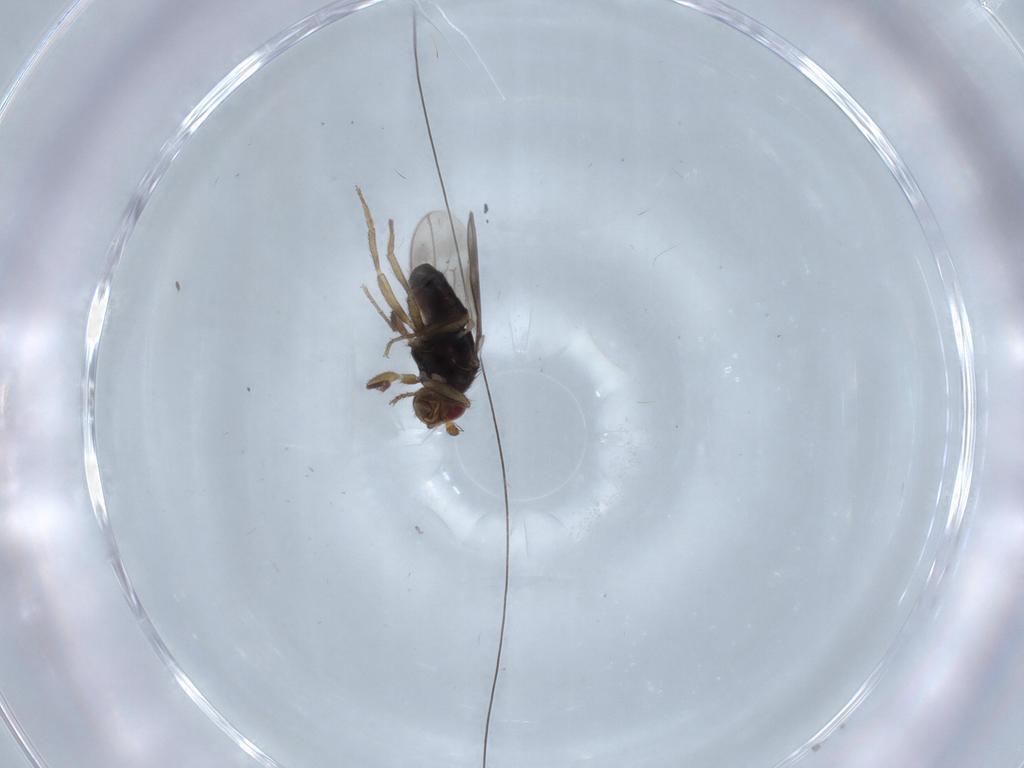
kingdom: Animalia
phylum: Arthropoda
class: Insecta
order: Diptera
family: Sphaeroceridae
